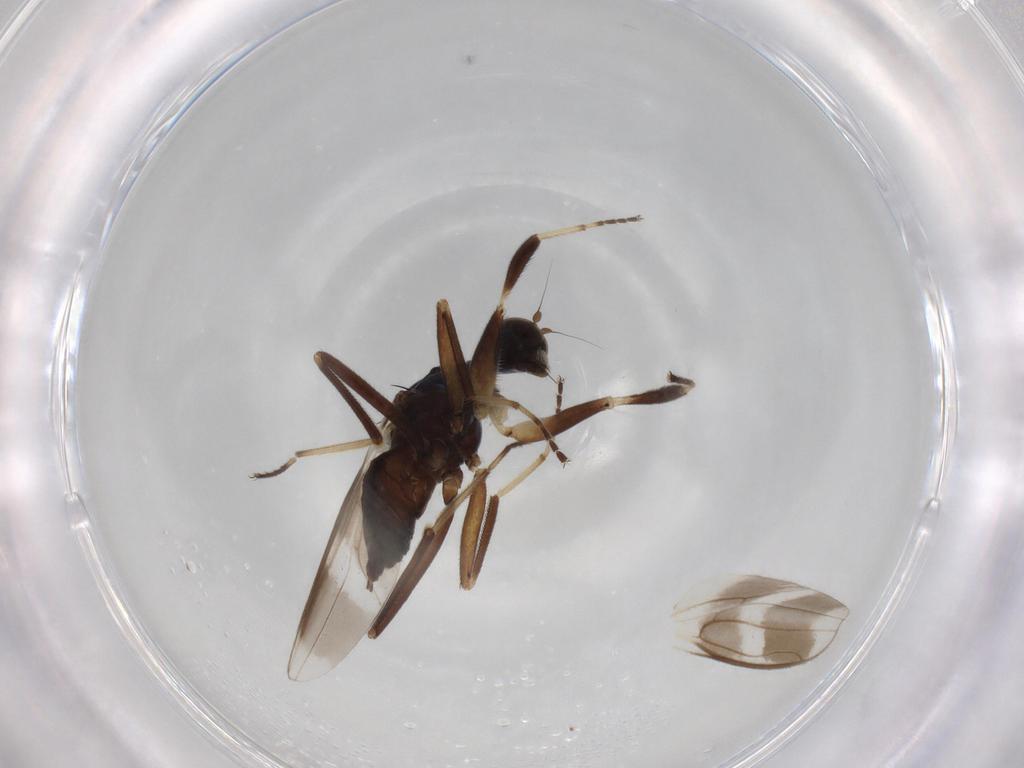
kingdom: Animalia
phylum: Arthropoda
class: Insecta
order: Diptera
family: Hybotidae
